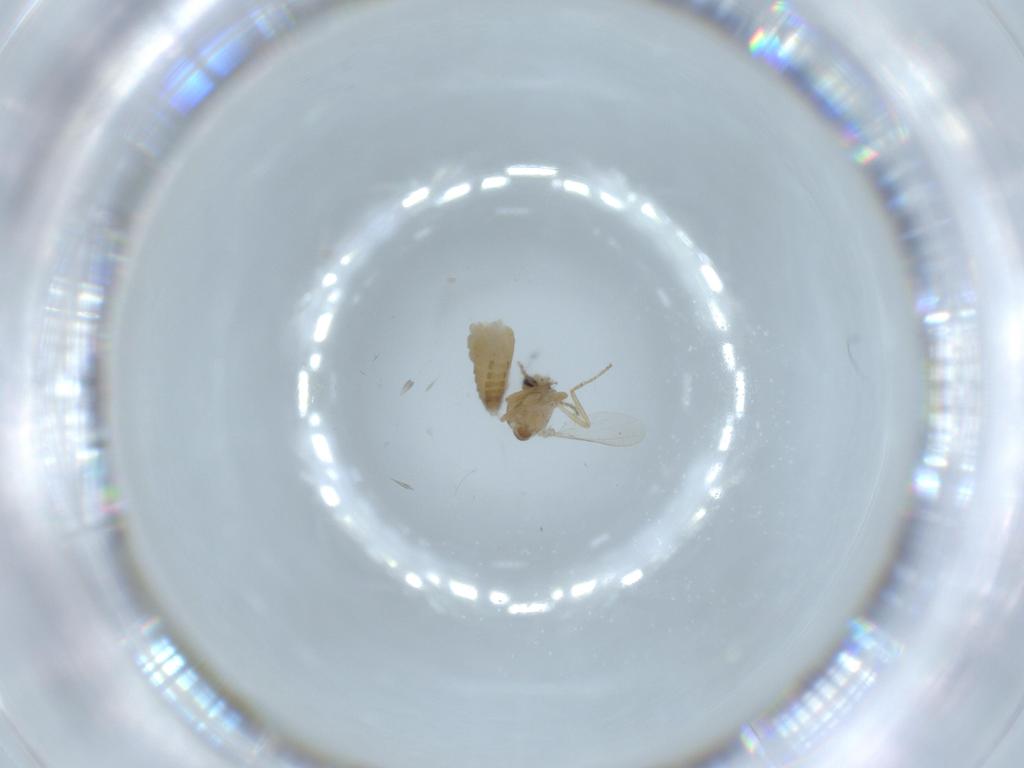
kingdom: Animalia
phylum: Arthropoda
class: Insecta
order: Diptera
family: Ceratopogonidae
